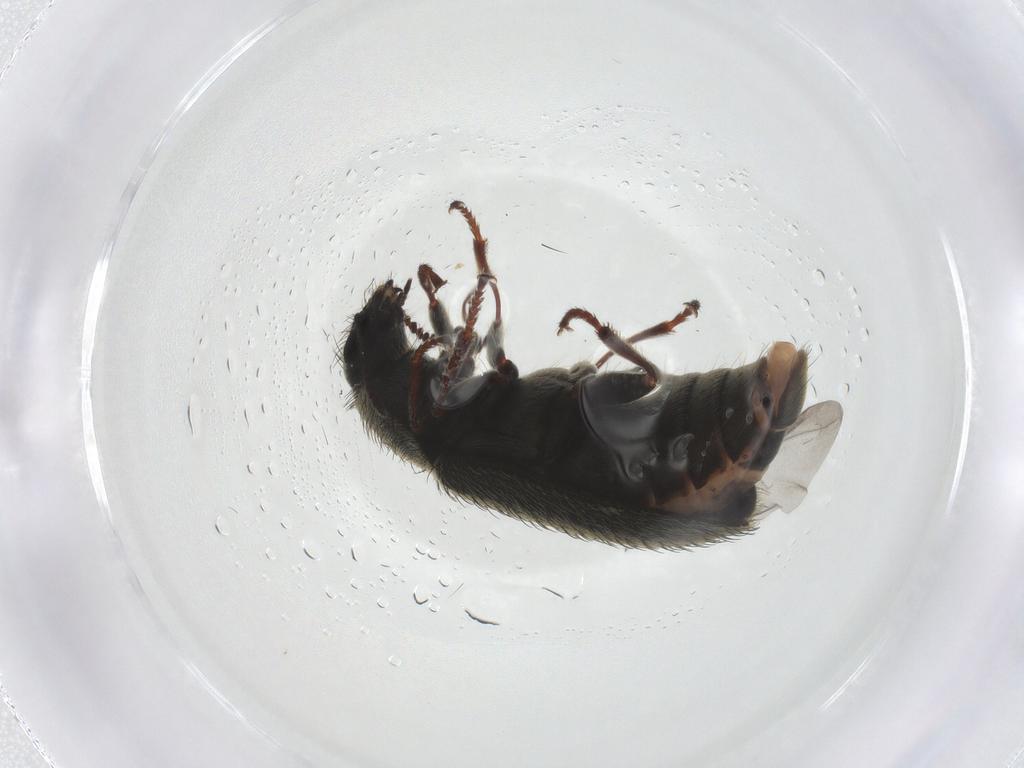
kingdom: Animalia
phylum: Arthropoda
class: Insecta
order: Coleoptera
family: Melyridae
